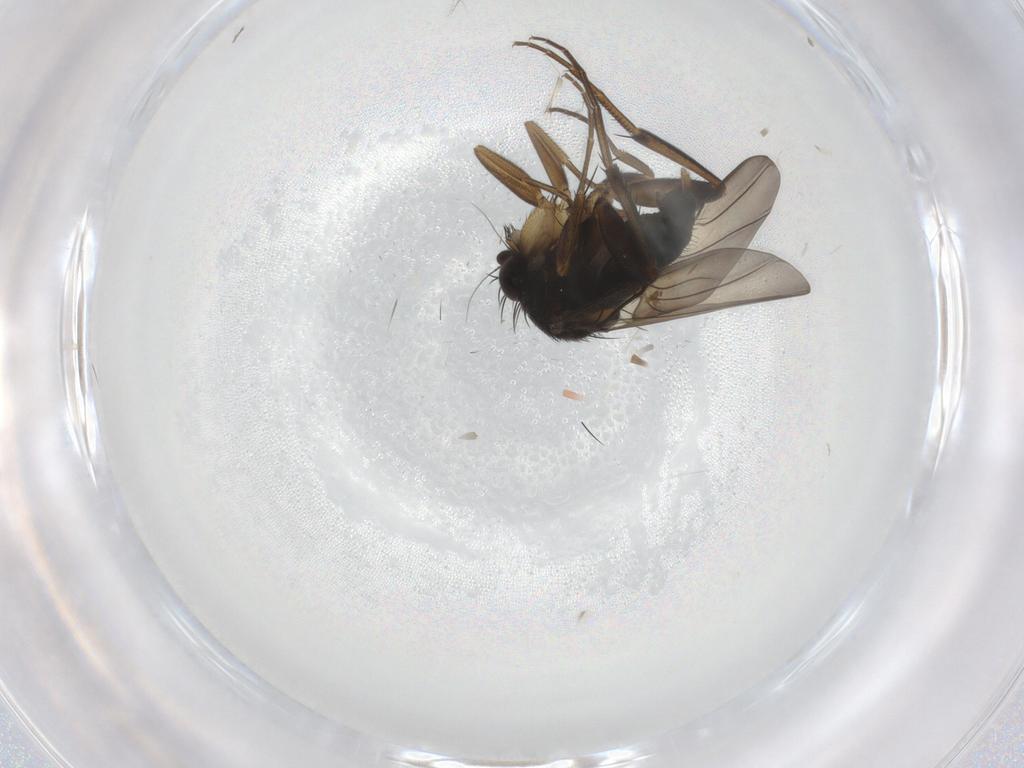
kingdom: Animalia
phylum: Arthropoda
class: Insecta
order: Diptera
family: Phoridae
